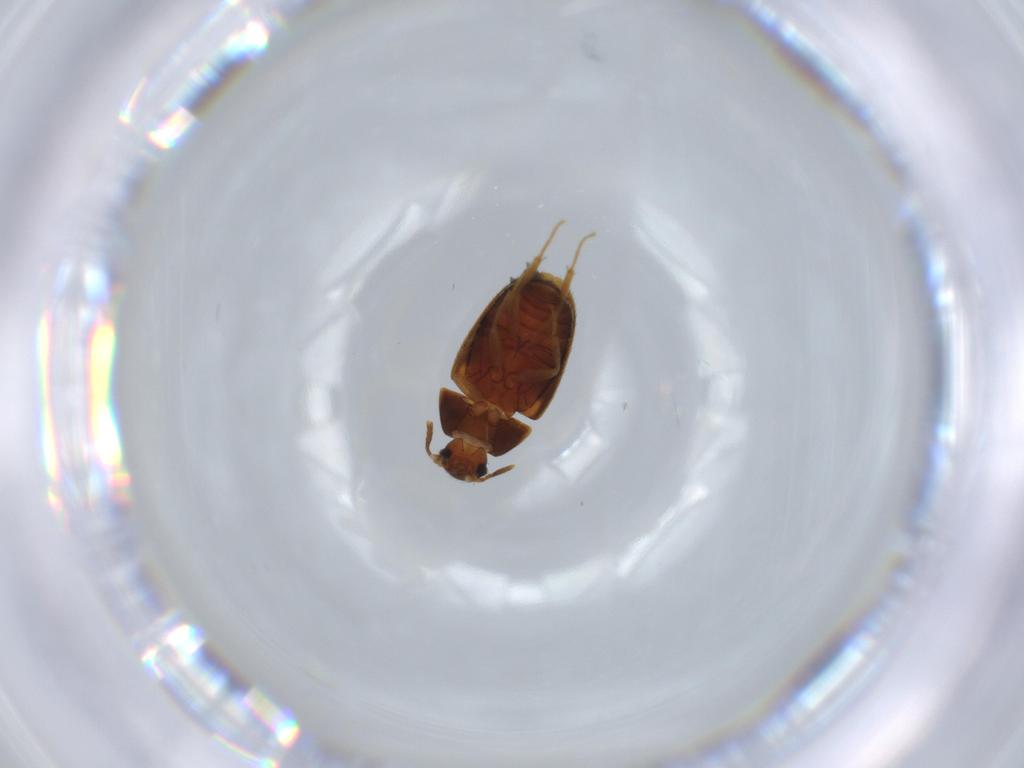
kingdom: Animalia
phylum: Arthropoda
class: Insecta
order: Coleoptera
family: Mycetophagidae
